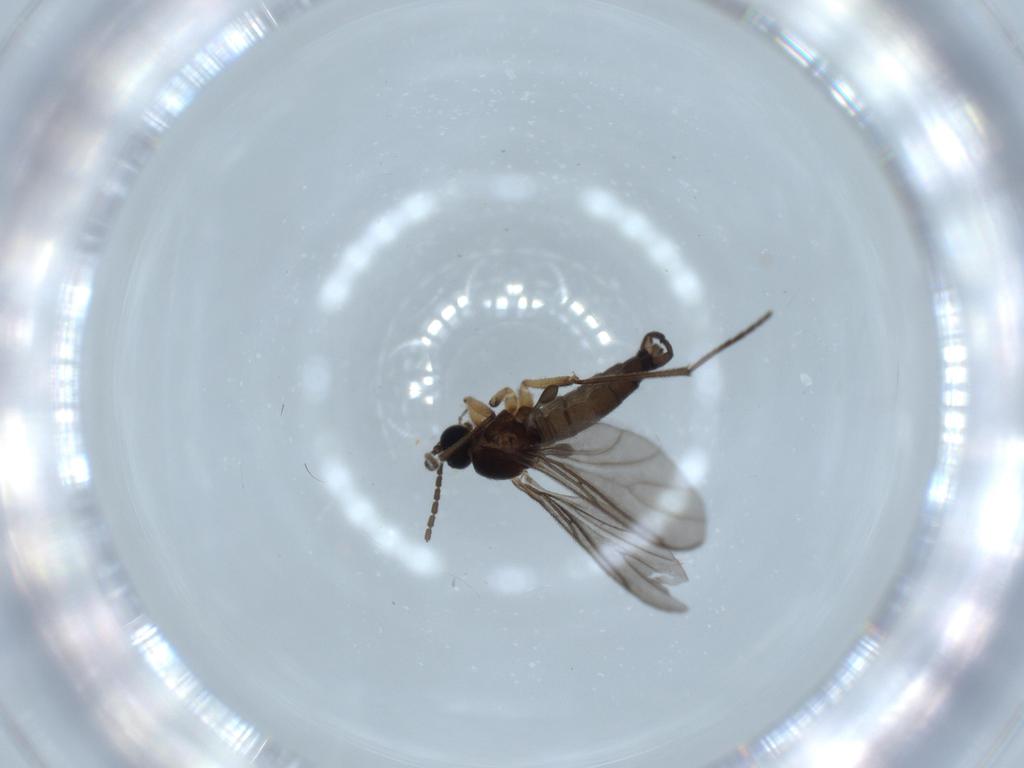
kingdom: Animalia
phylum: Arthropoda
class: Insecta
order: Diptera
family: Sciaridae
